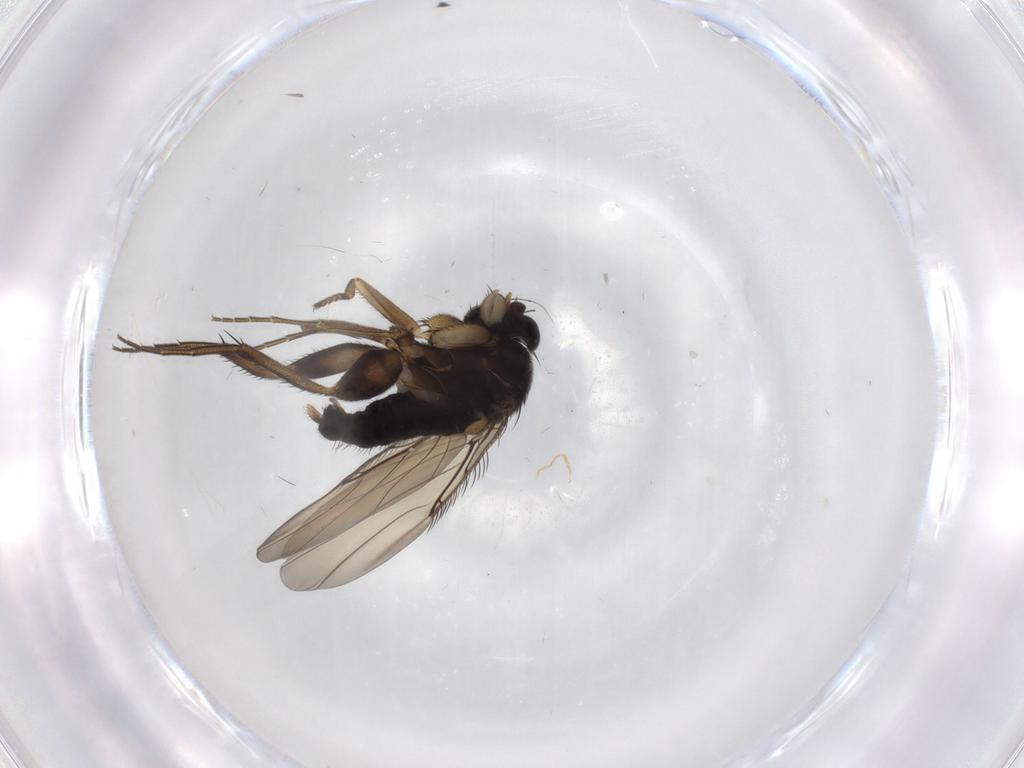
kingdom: Animalia
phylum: Arthropoda
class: Insecta
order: Diptera
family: Phoridae
